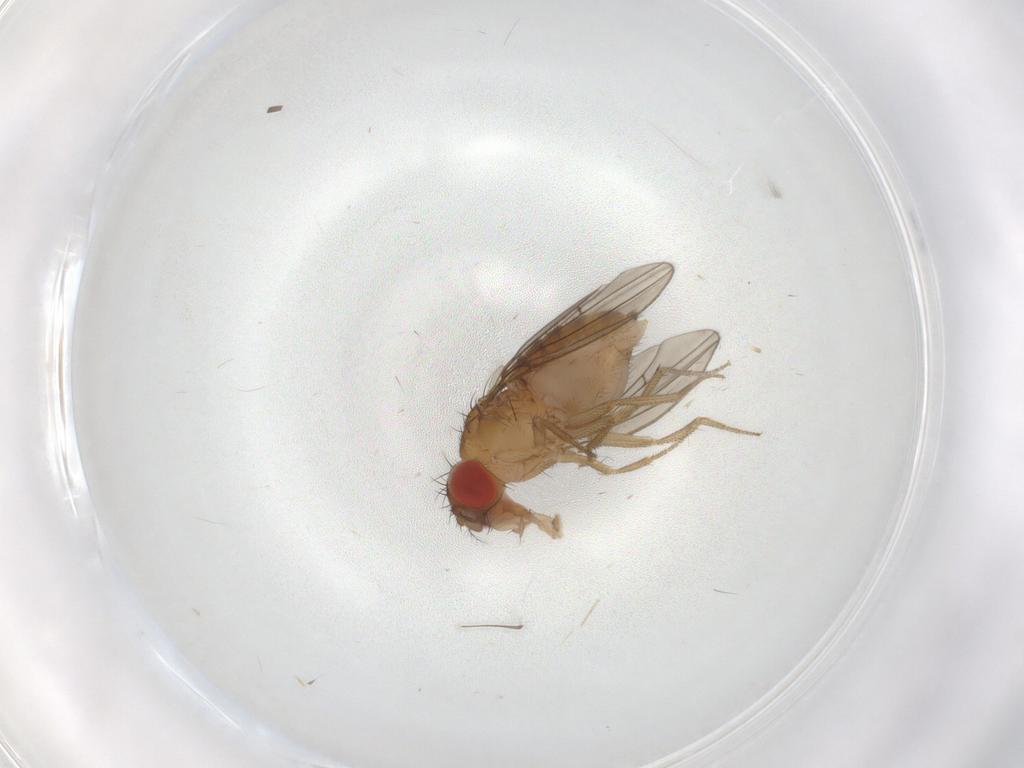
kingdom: Animalia
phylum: Arthropoda
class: Insecta
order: Diptera
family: Drosophilidae
